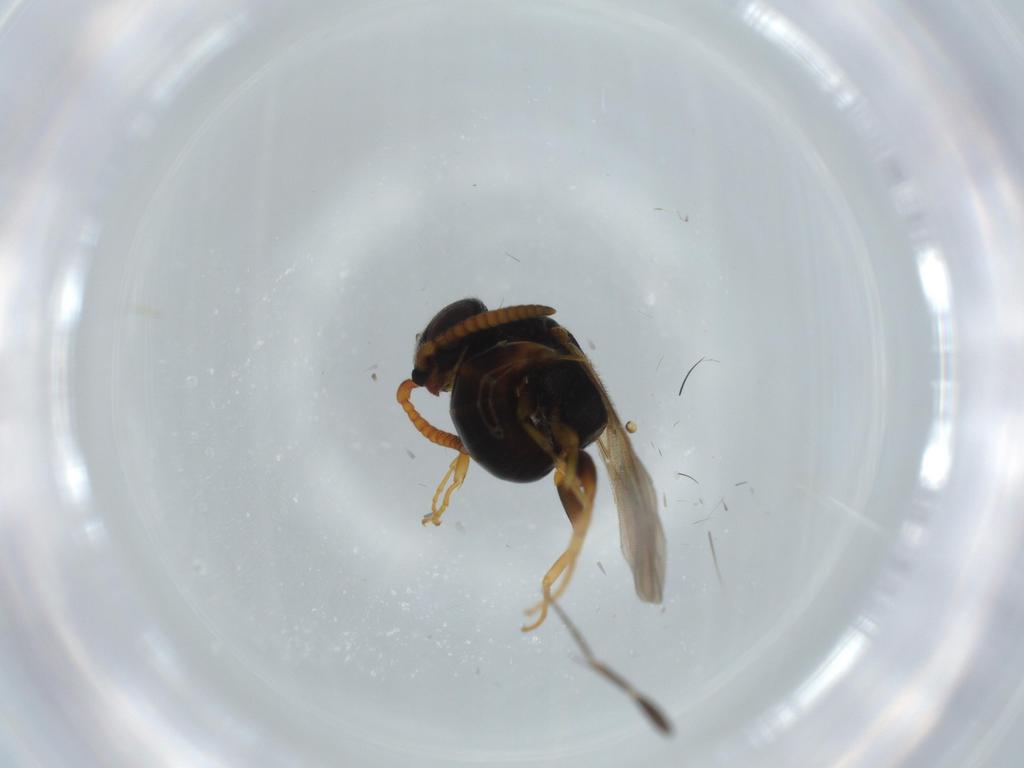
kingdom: Animalia
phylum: Arthropoda
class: Insecta
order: Hymenoptera
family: Bethylidae
